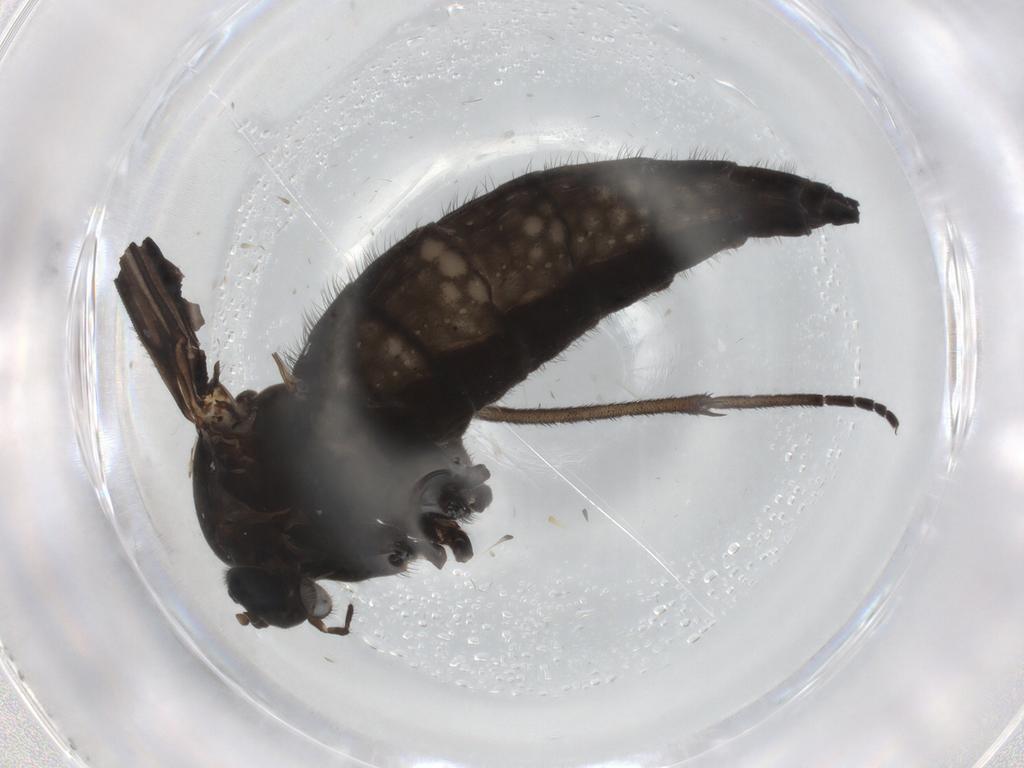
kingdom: Animalia
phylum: Arthropoda
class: Insecta
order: Diptera
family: Sciaridae
